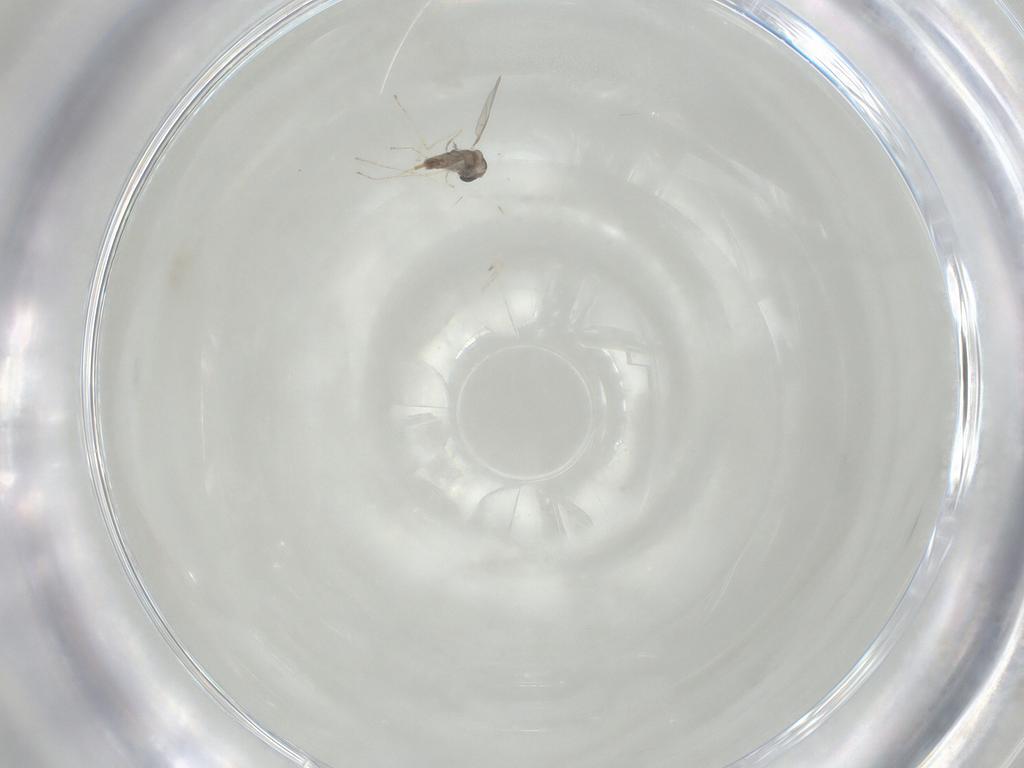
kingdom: Animalia
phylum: Arthropoda
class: Insecta
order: Diptera
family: Cecidomyiidae
